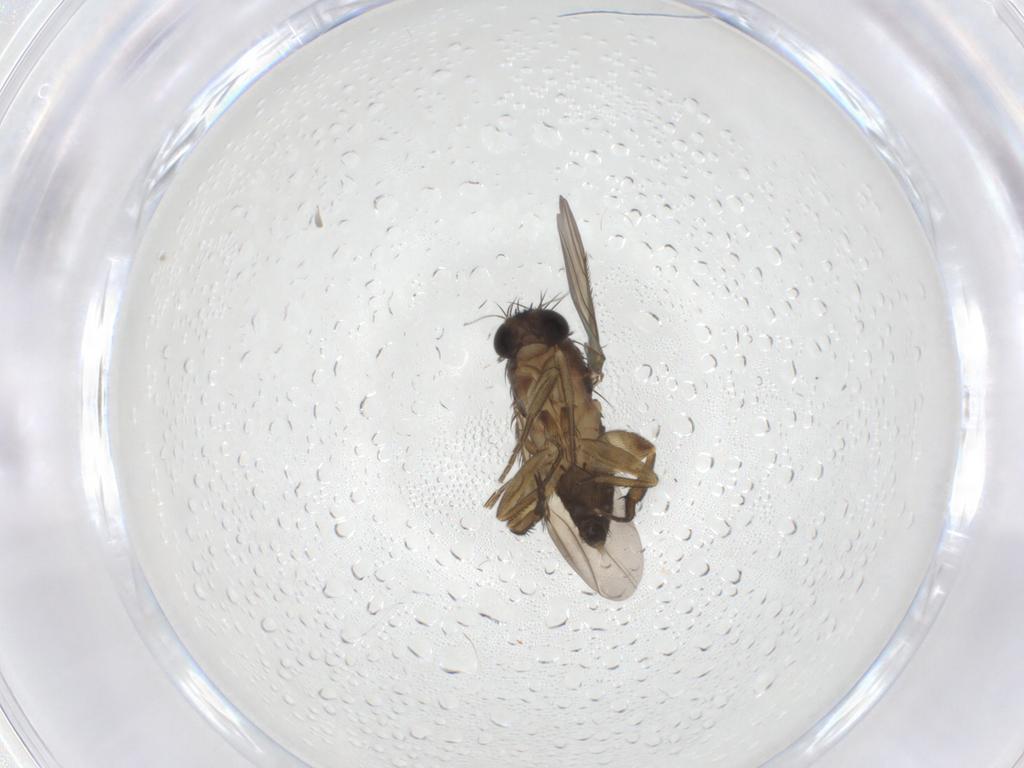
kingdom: Animalia
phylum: Arthropoda
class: Insecta
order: Diptera
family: Phoridae
